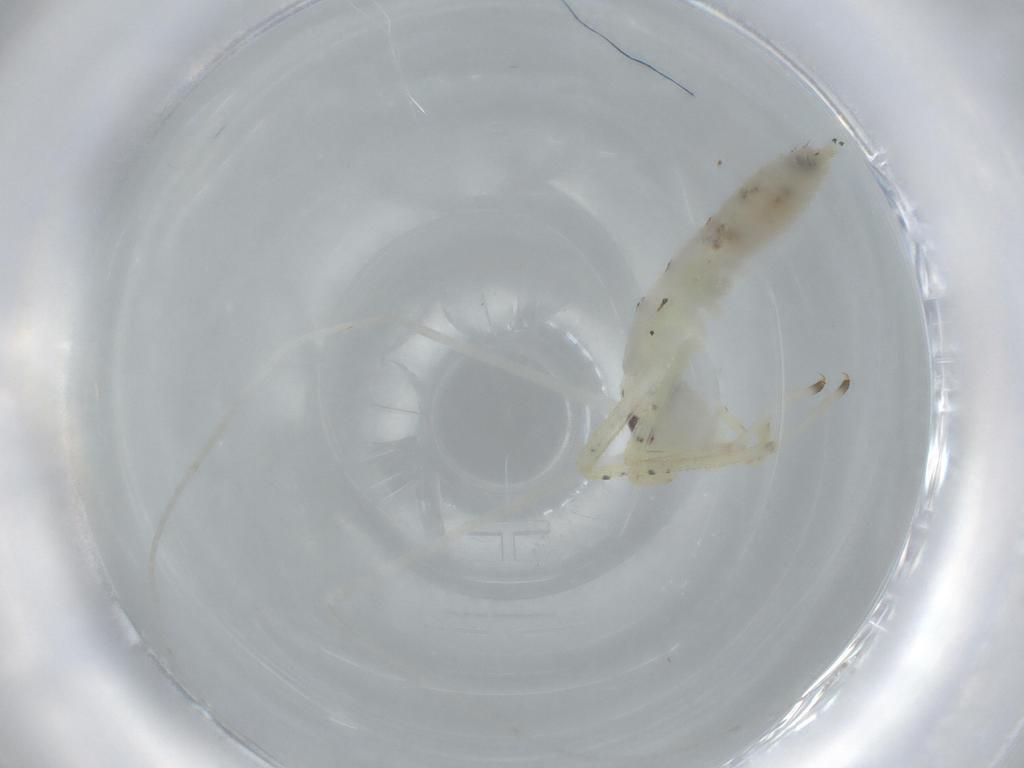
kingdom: Animalia
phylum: Arthropoda
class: Insecta
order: Orthoptera
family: Oecanthidae
